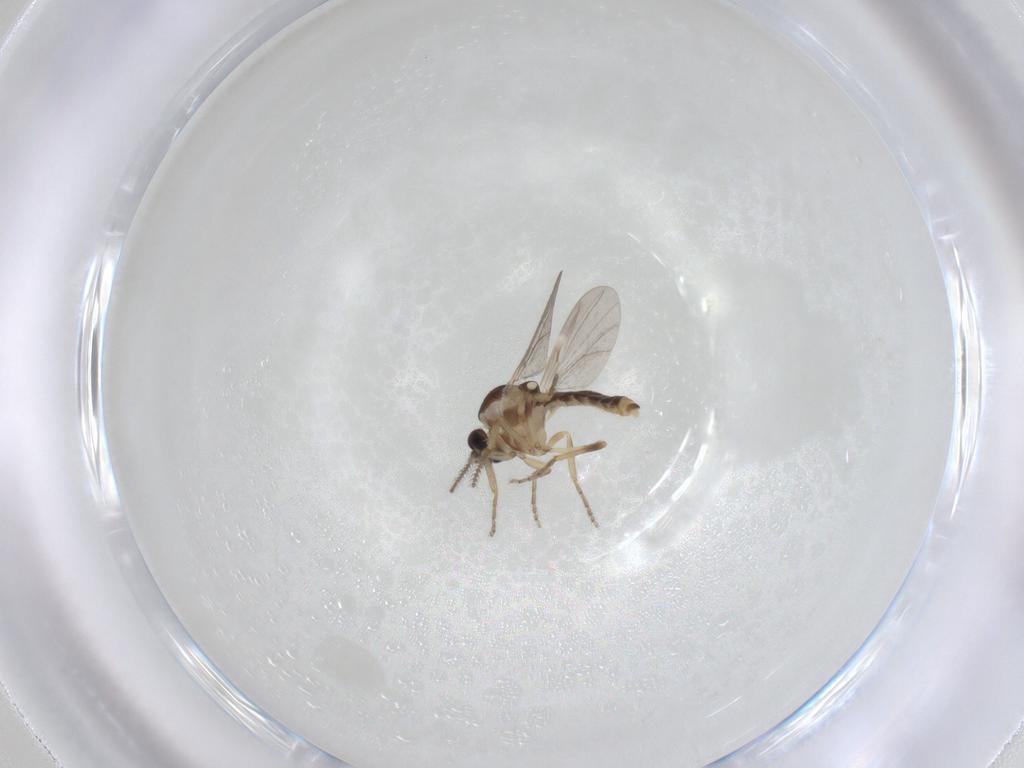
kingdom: Animalia
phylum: Arthropoda
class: Insecta
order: Diptera
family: Ceratopogonidae
